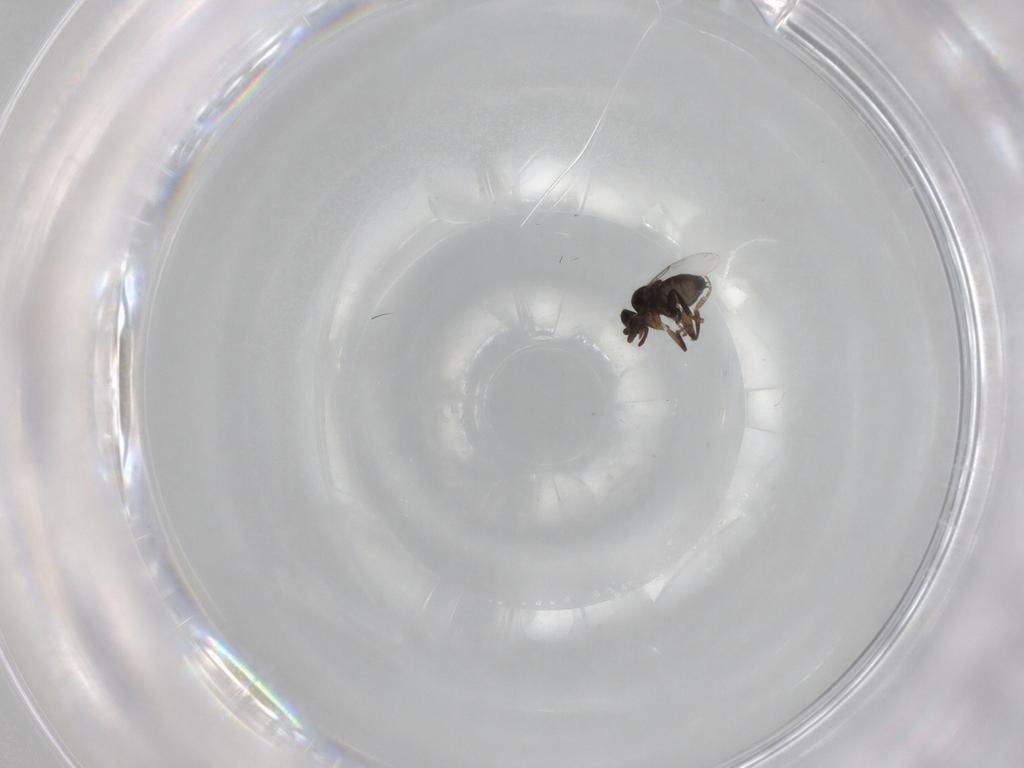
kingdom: Animalia
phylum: Arthropoda
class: Insecta
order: Diptera
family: Phoridae
